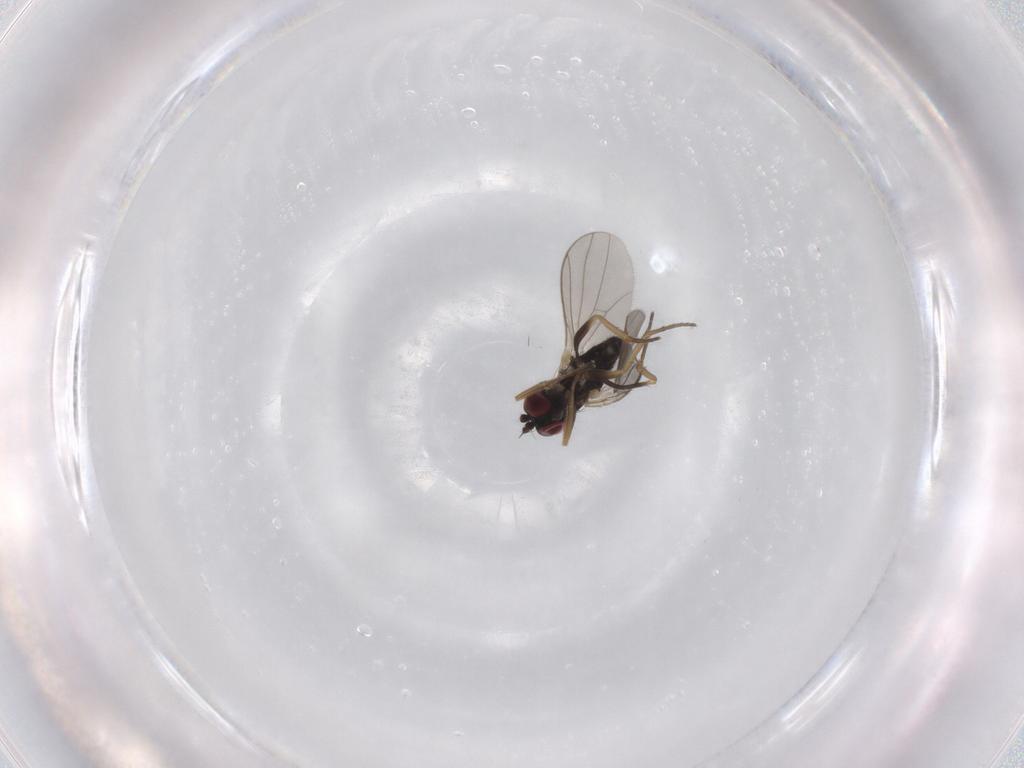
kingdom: Animalia
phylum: Arthropoda
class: Insecta
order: Diptera
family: Agromyzidae
